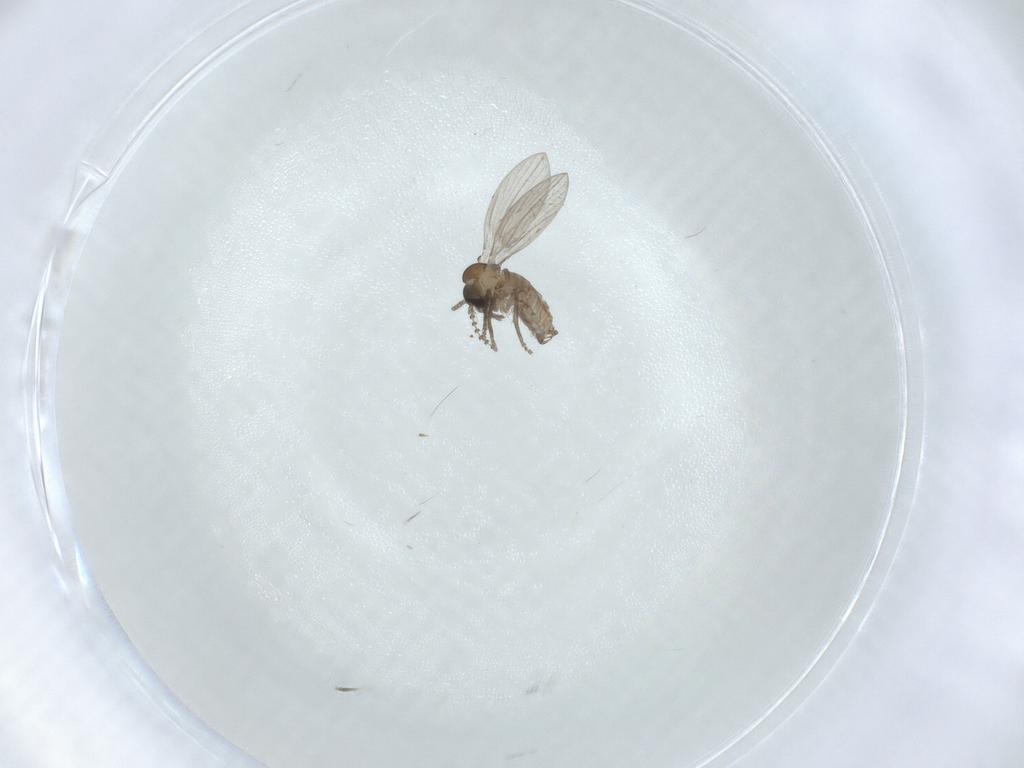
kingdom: Animalia
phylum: Arthropoda
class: Insecta
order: Diptera
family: Psychodidae
